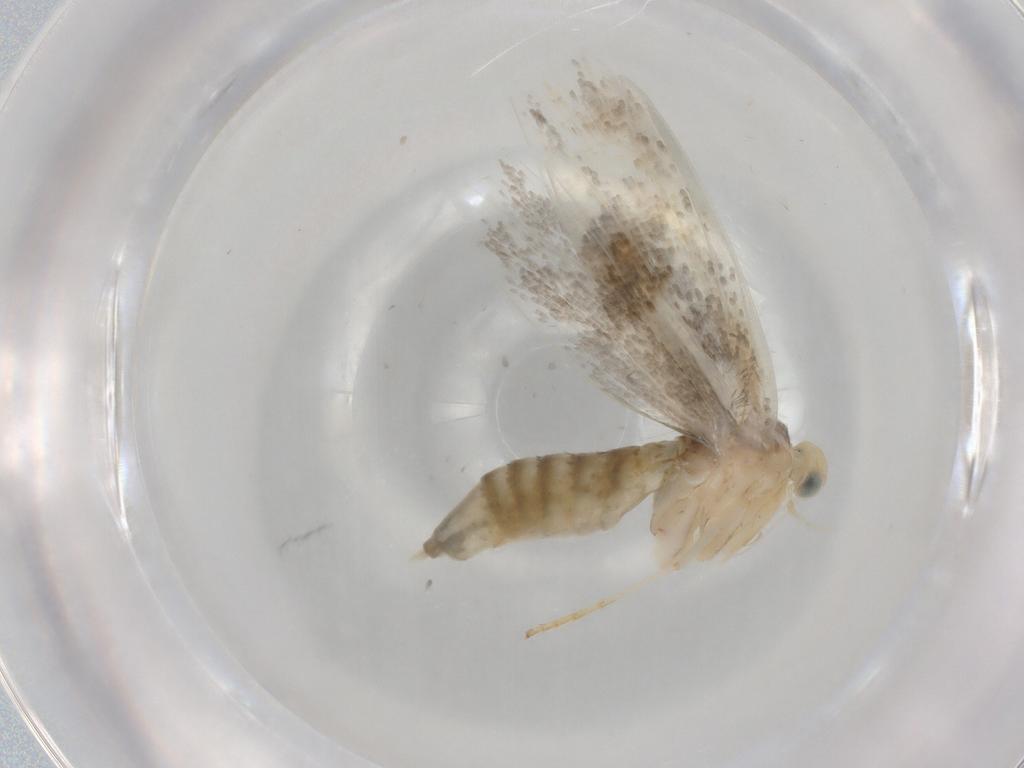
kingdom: Animalia
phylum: Arthropoda
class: Insecta
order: Lepidoptera
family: Argyresthiidae
